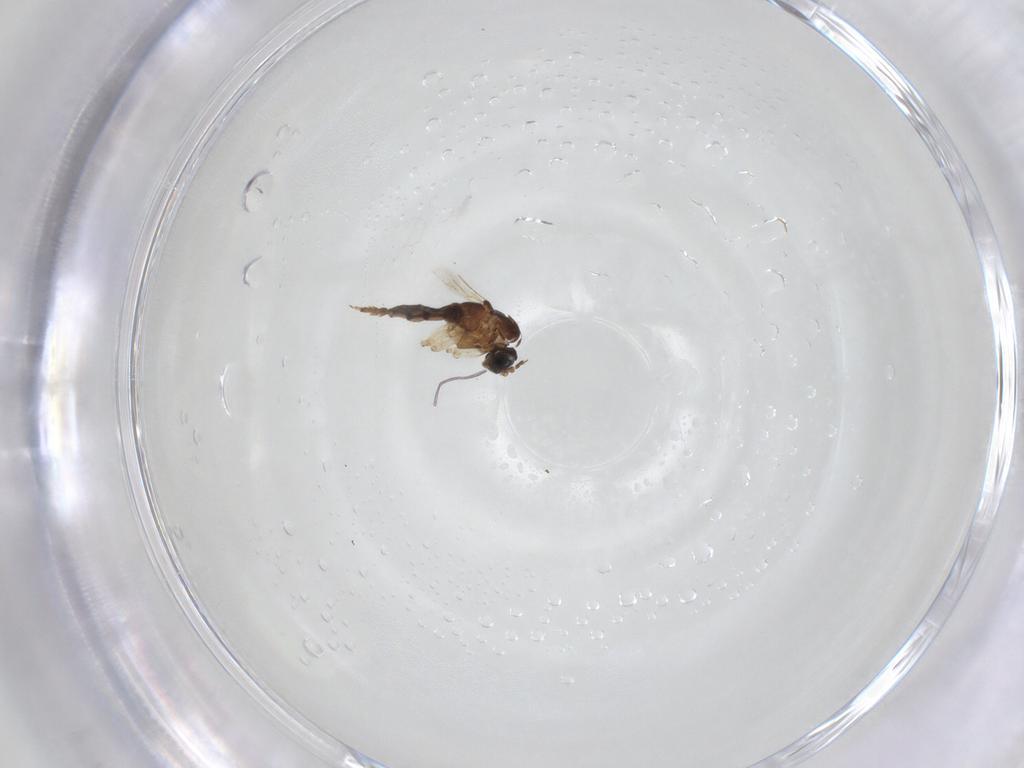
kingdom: Animalia
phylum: Arthropoda
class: Insecta
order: Diptera
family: Sciaridae
